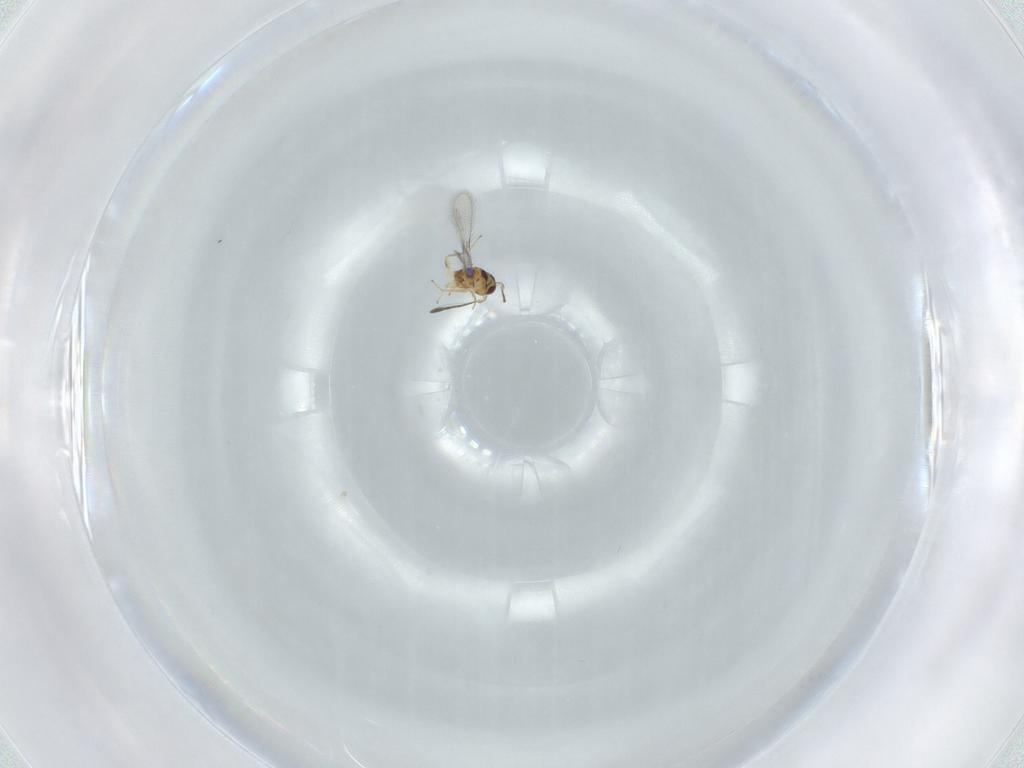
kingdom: Animalia
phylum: Arthropoda
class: Insecta
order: Hymenoptera
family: Mymaridae
